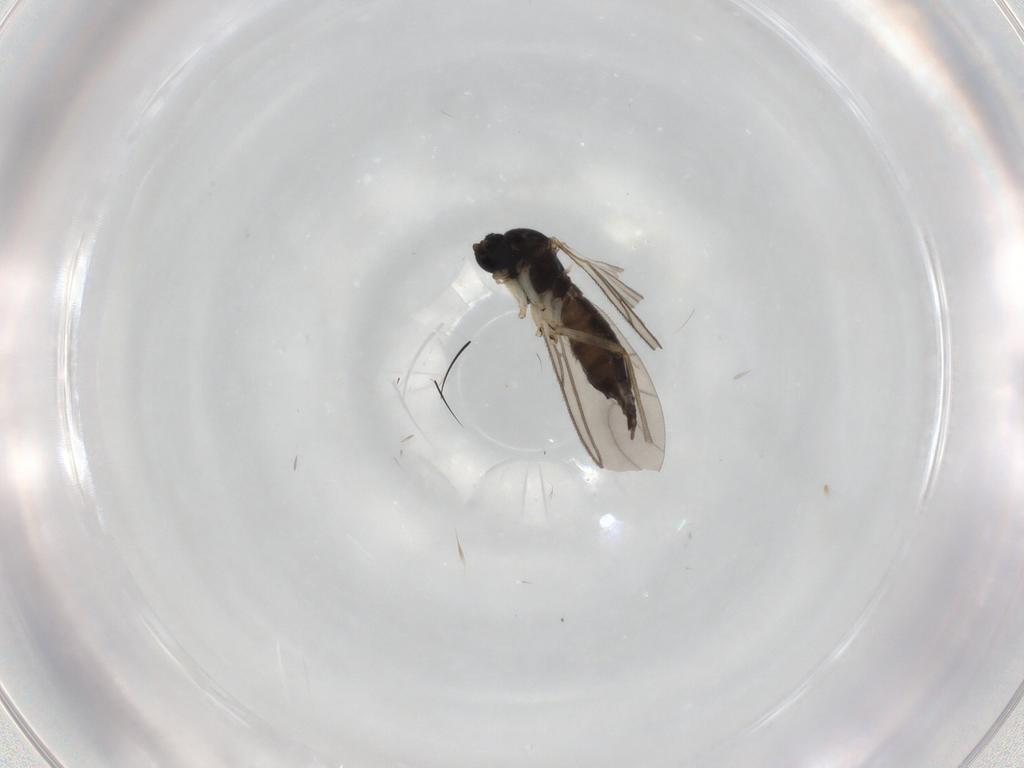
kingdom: Animalia
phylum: Arthropoda
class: Insecta
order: Diptera
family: Sciaridae
